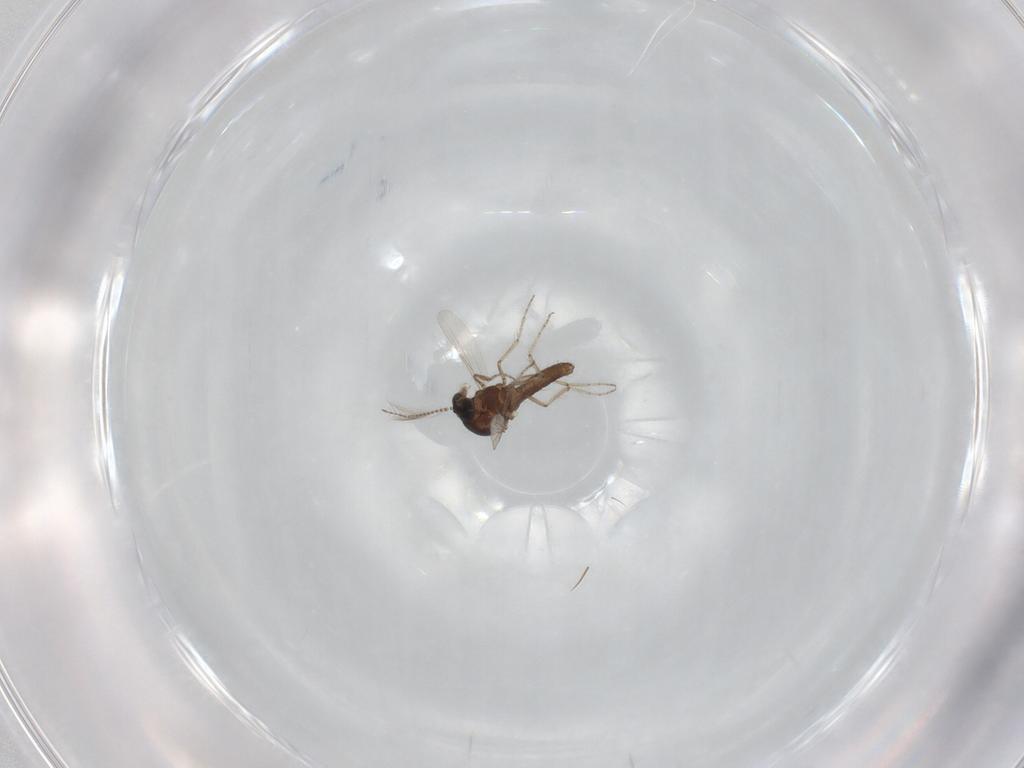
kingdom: Animalia
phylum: Arthropoda
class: Insecta
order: Diptera
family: Ceratopogonidae
